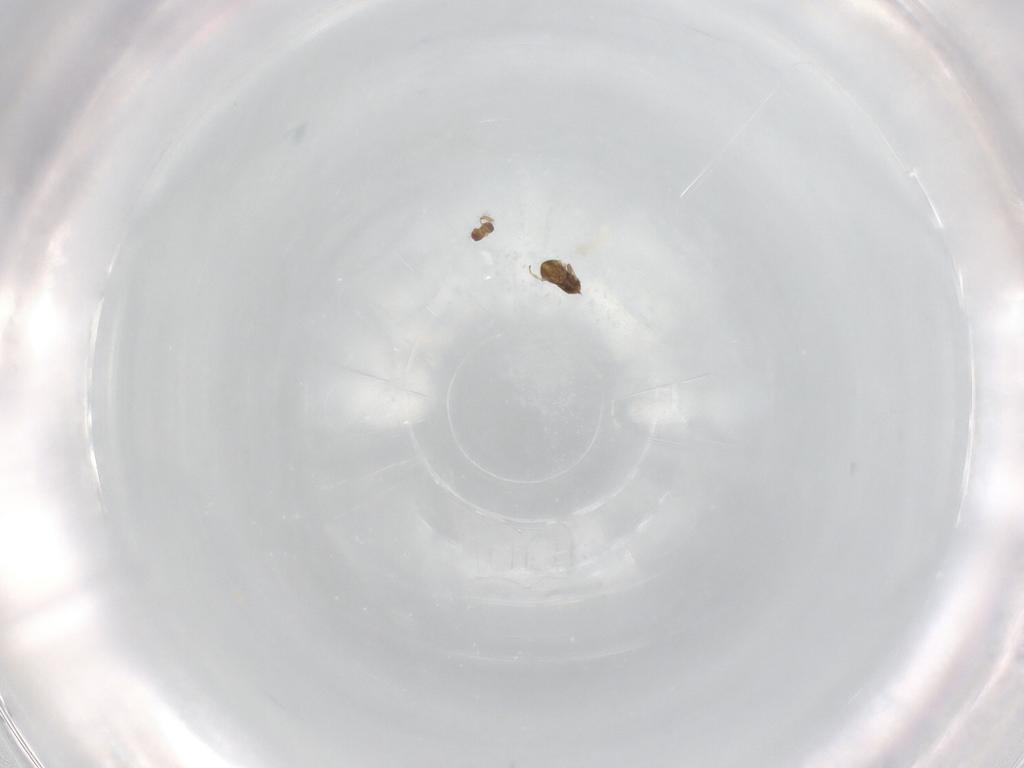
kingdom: Animalia
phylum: Arthropoda
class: Insecta
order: Hymenoptera
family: Trichogrammatidae
